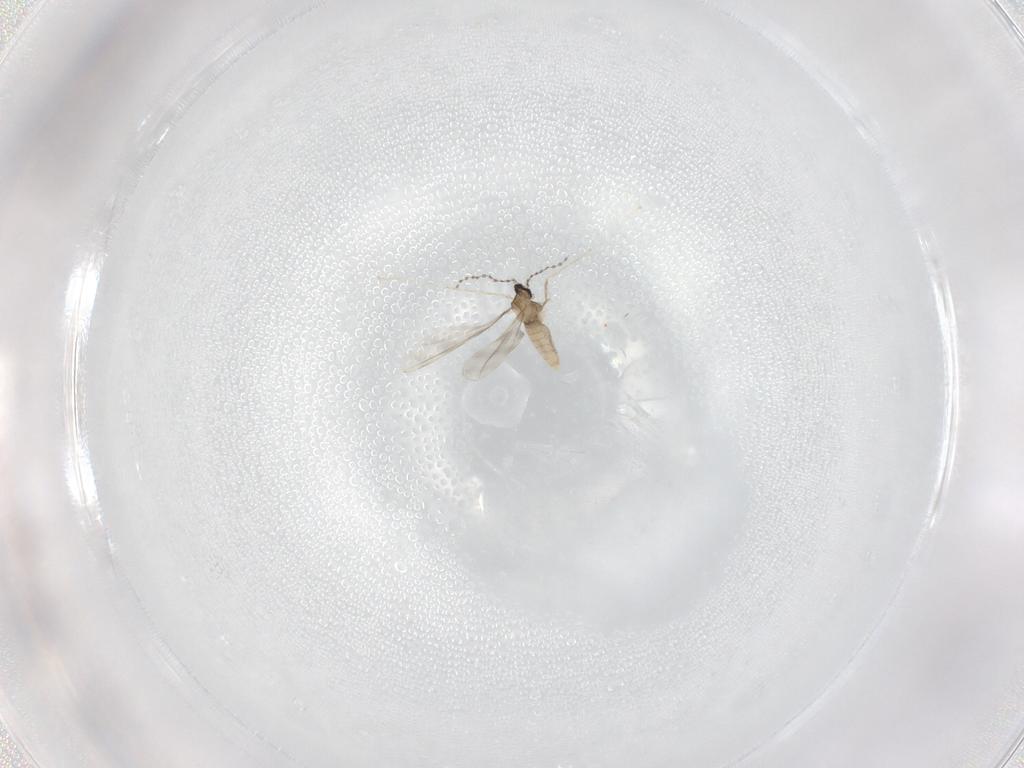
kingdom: Animalia
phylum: Arthropoda
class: Insecta
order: Diptera
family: Cecidomyiidae
